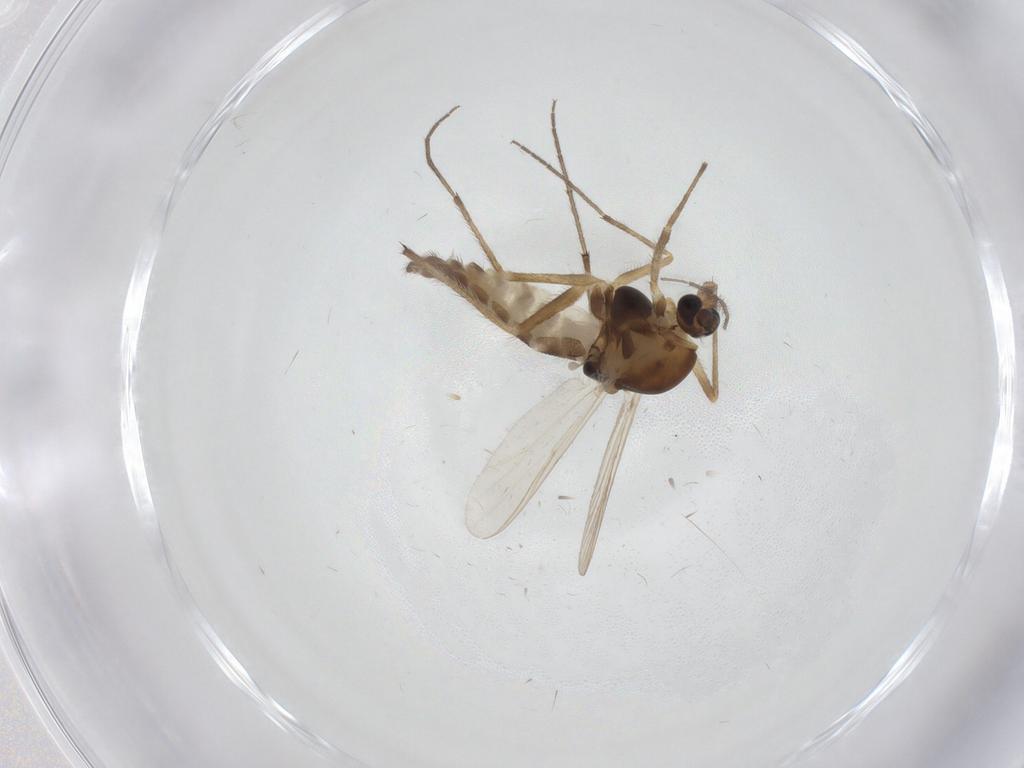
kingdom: Animalia
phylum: Arthropoda
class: Insecta
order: Diptera
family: Chironomidae
